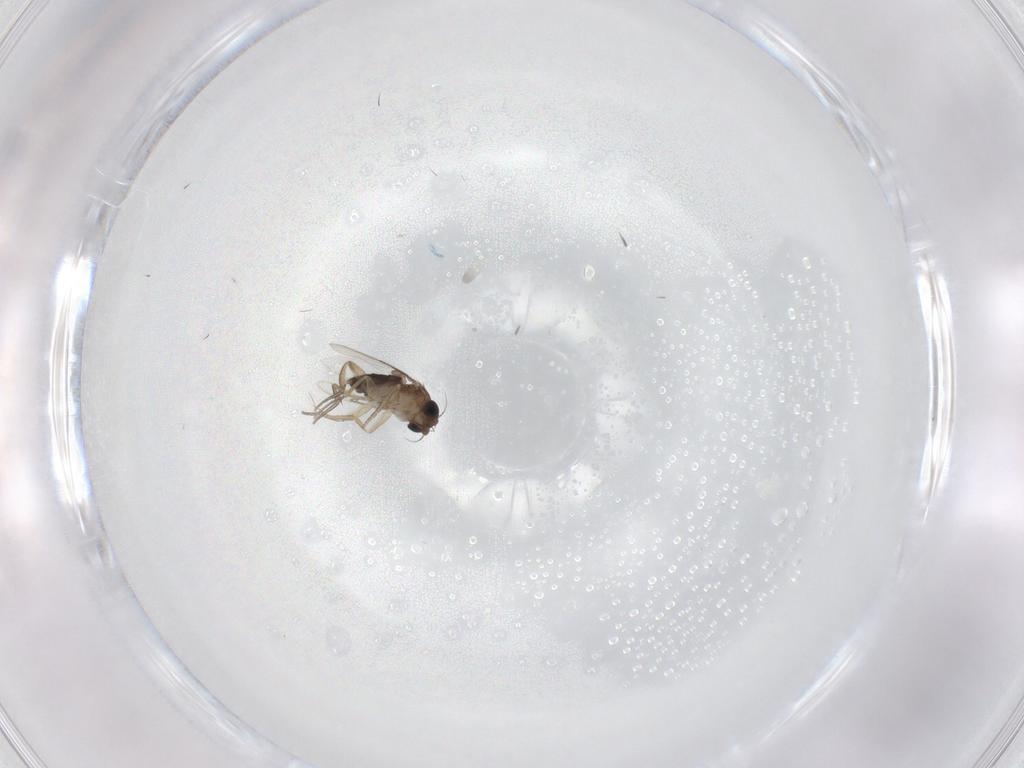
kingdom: Animalia
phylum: Arthropoda
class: Insecta
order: Diptera
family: Phoridae
